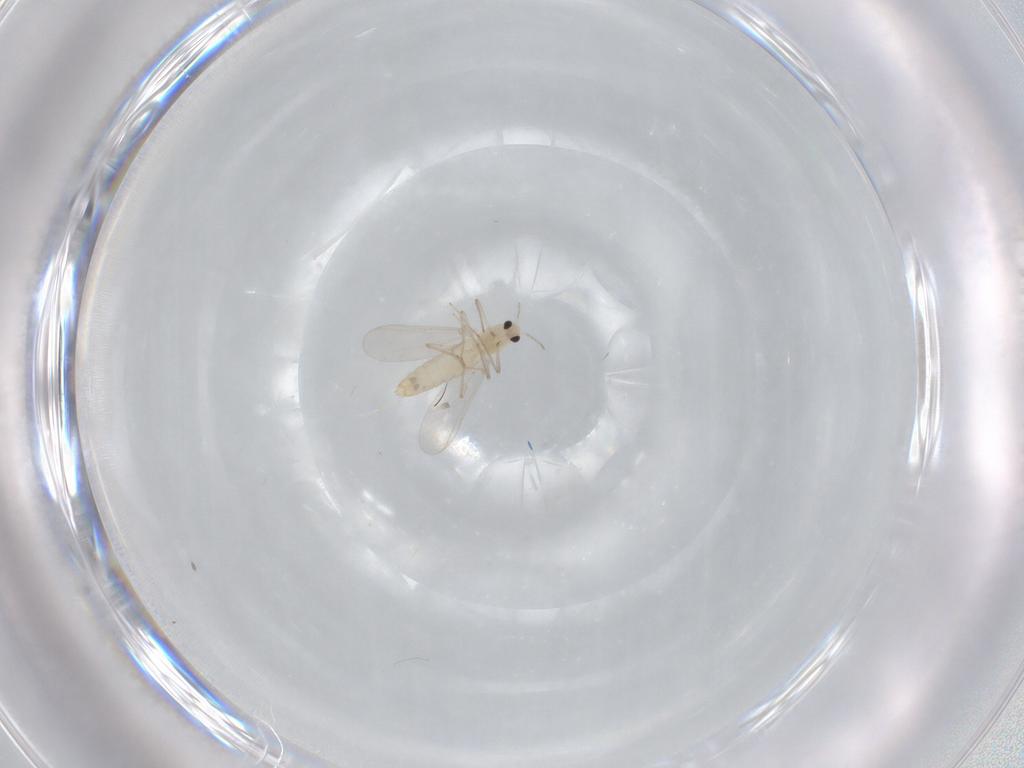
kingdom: Animalia
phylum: Arthropoda
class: Insecta
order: Diptera
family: Chironomidae
